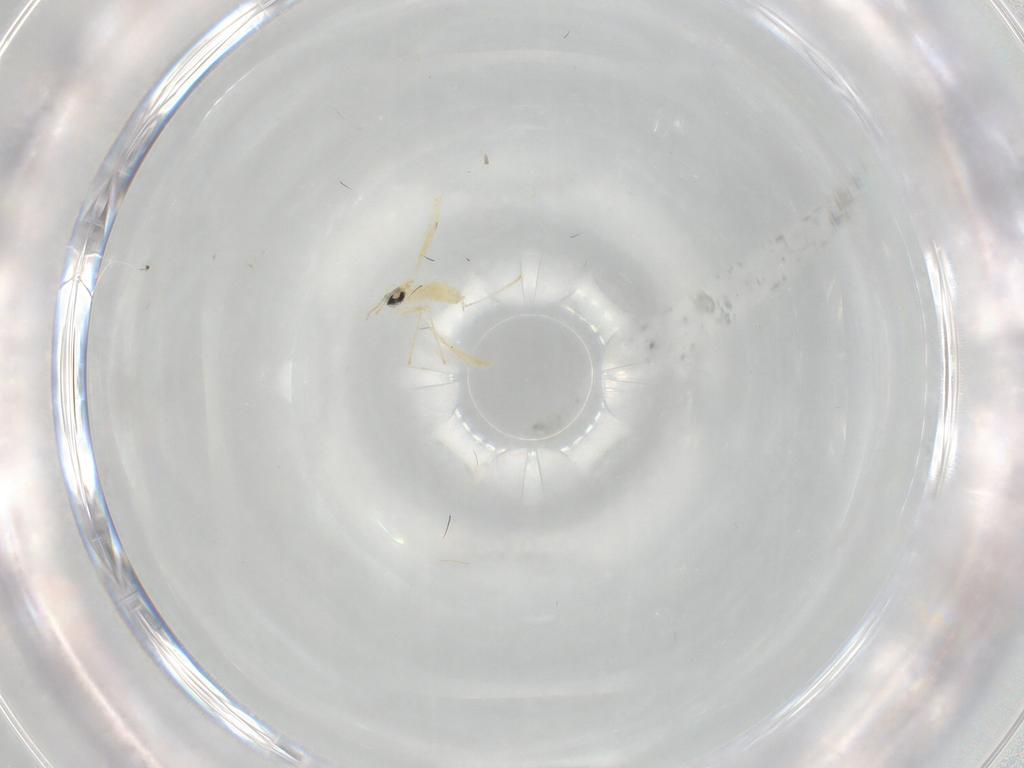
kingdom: Animalia
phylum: Arthropoda
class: Insecta
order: Diptera
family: Cecidomyiidae
